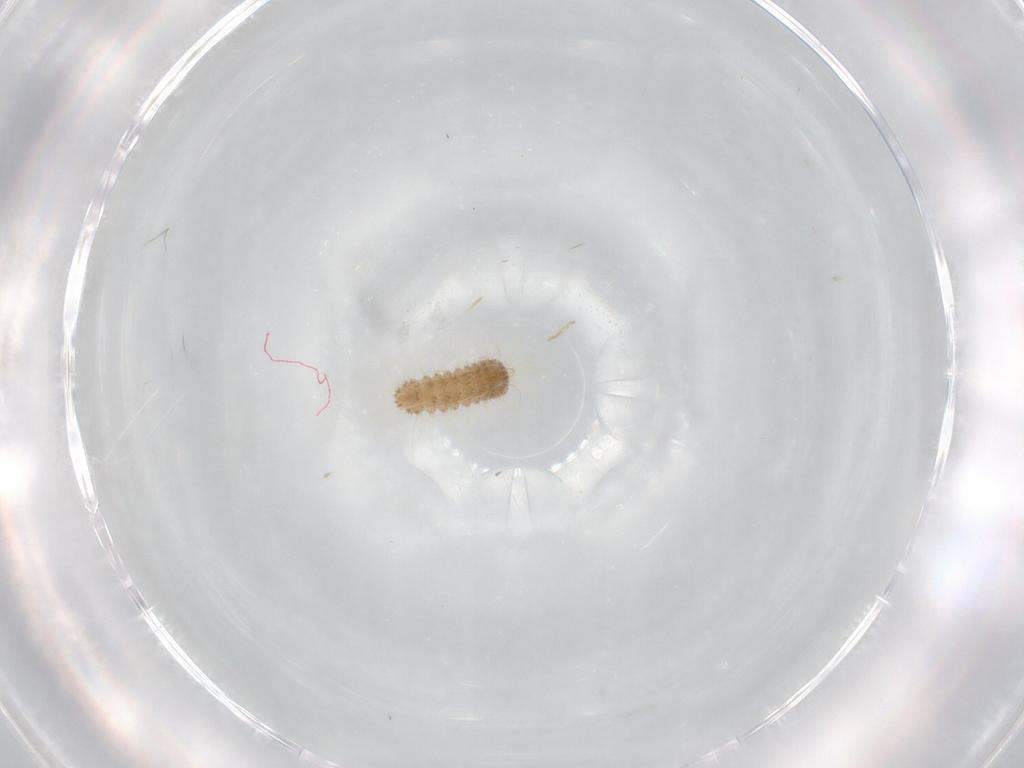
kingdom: Animalia
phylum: Arthropoda
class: Insecta
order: Lepidoptera
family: Lycaenidae
